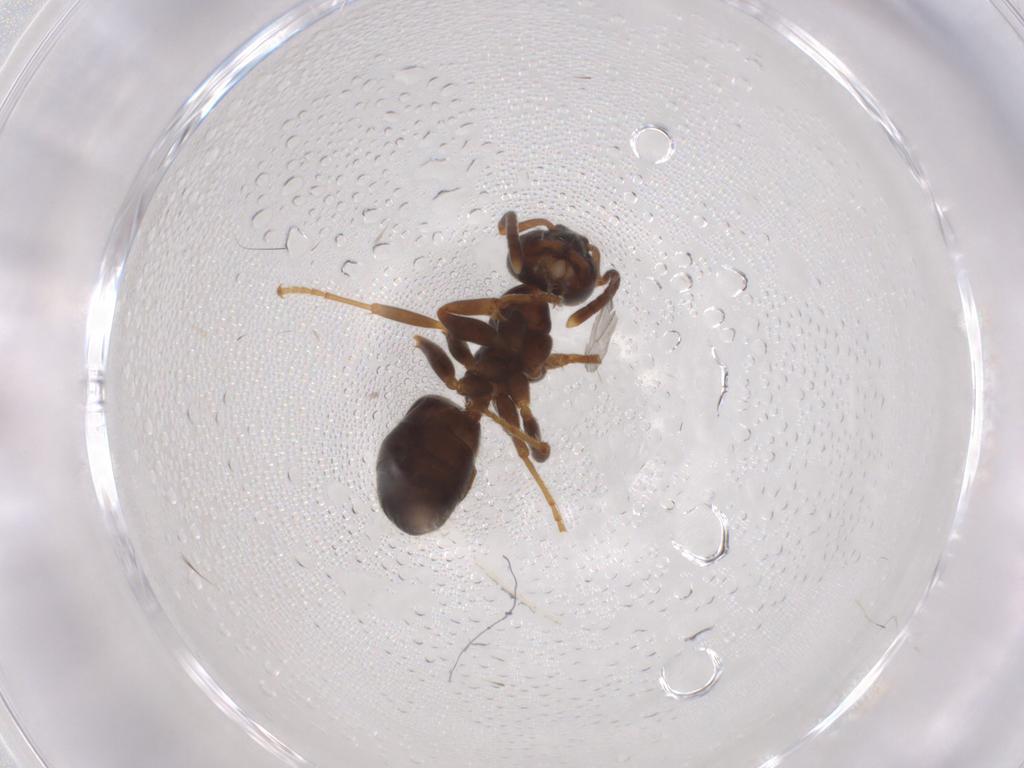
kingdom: Animalia
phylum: Arthropoda
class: Insecta
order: Hymenoptera
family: Formicidae
